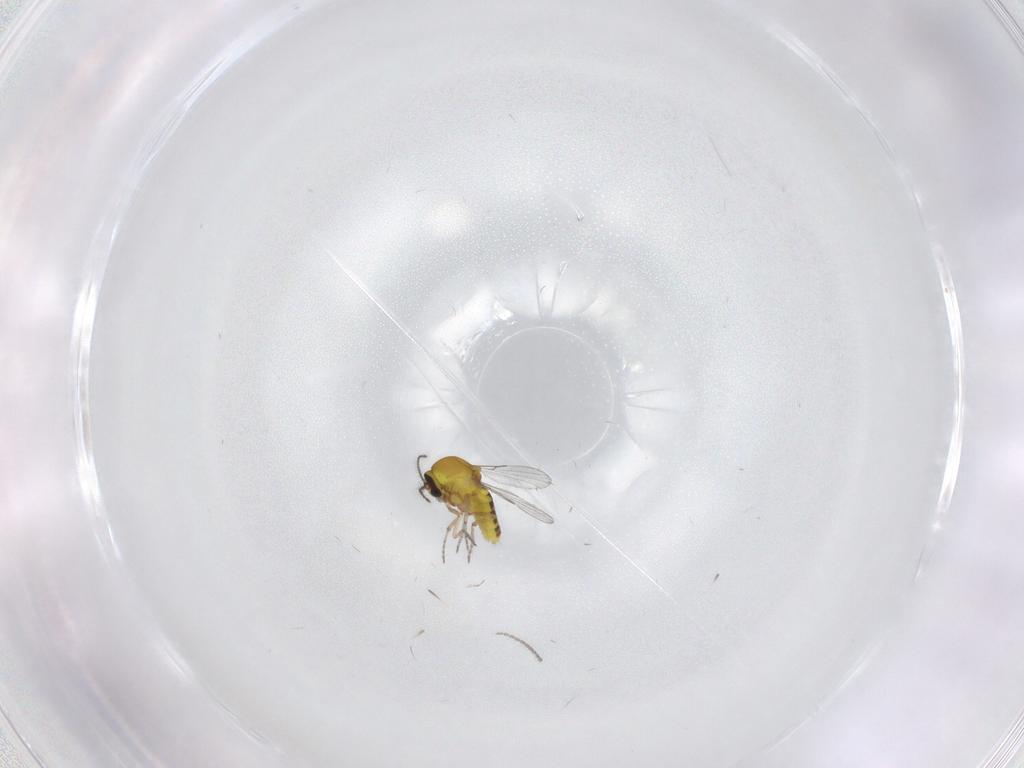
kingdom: Animalia
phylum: Arthropoda
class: Insecta
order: Diptera
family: Ceratopogonidae
